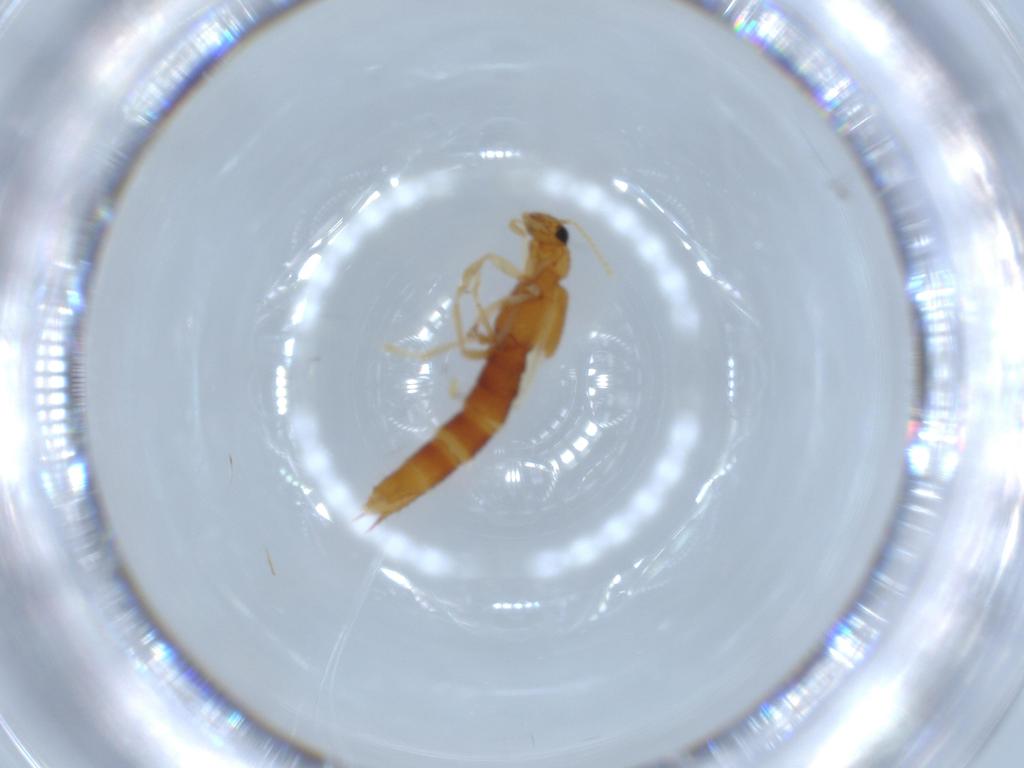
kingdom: Animalia
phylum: Arthropoda
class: Insecta
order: Coleoptera
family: Staphylinidae
